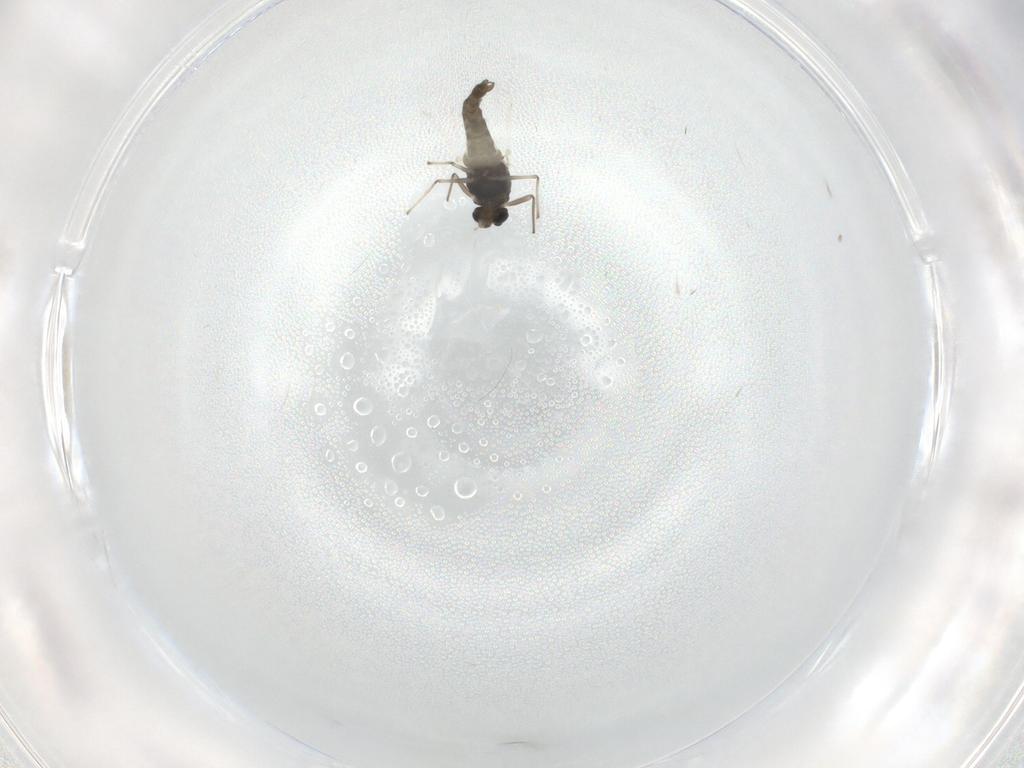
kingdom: Animalia
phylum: Arthropoda
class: Insecta
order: Diptera
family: Chironomidae
